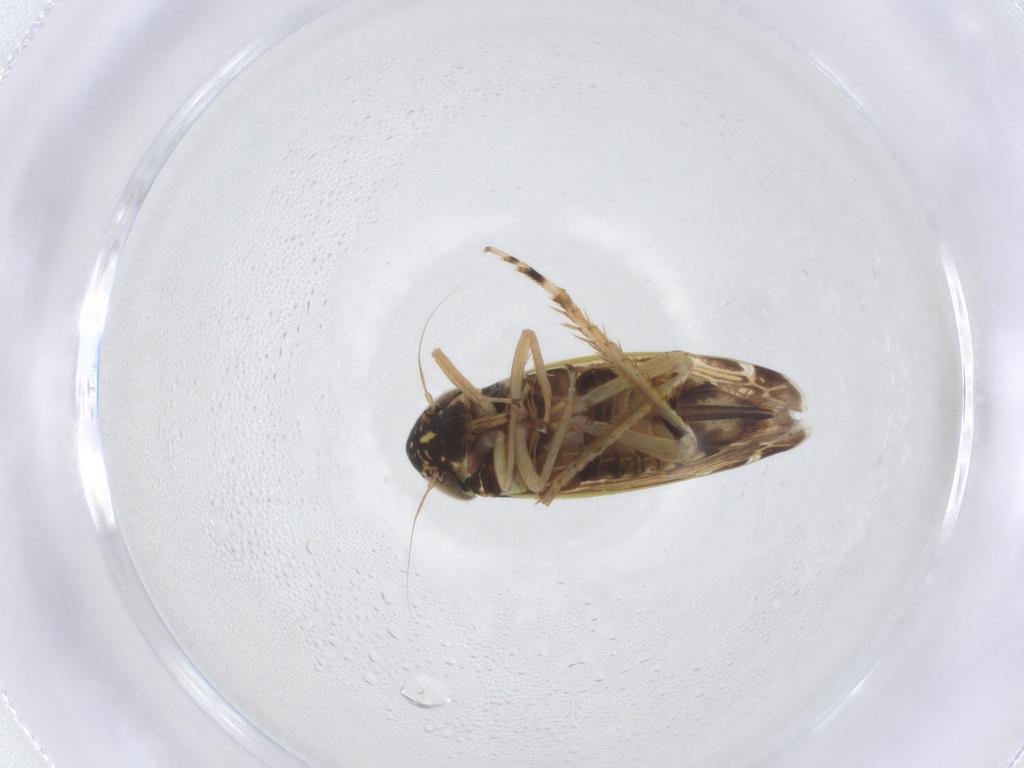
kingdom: Animalia
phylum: Arthropoda
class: Insecta
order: Hemiptera
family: Cicadellidae
